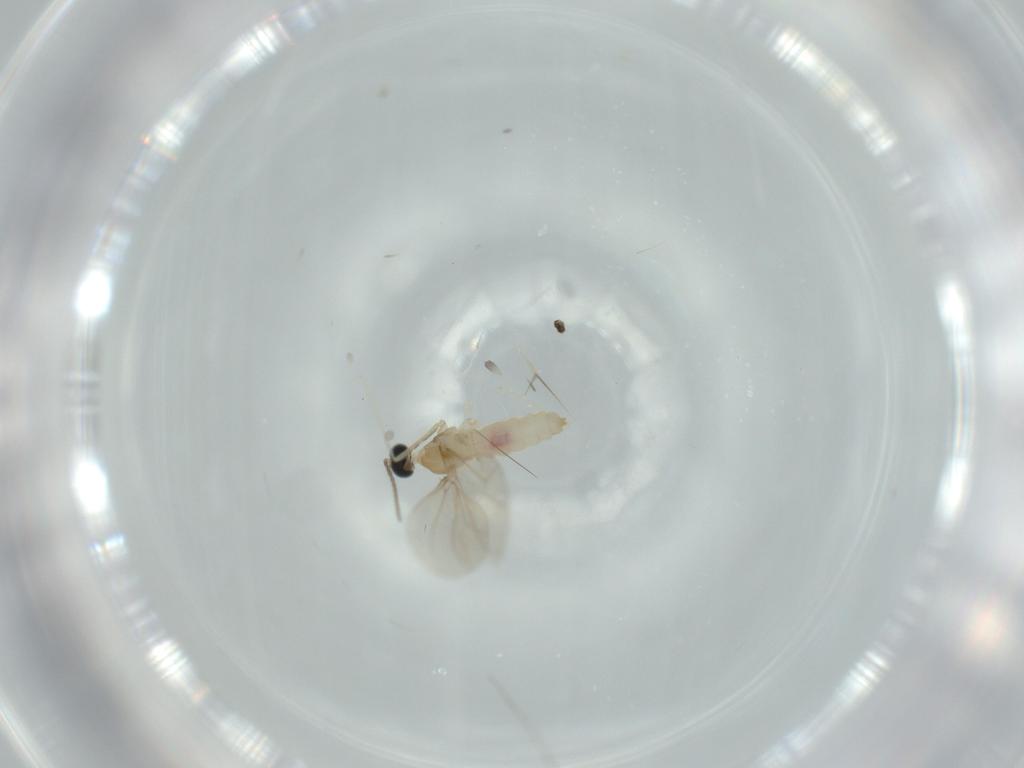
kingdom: Animalia
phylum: Arthropoda
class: Insecta
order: Diptera
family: Cecidomyiidae
